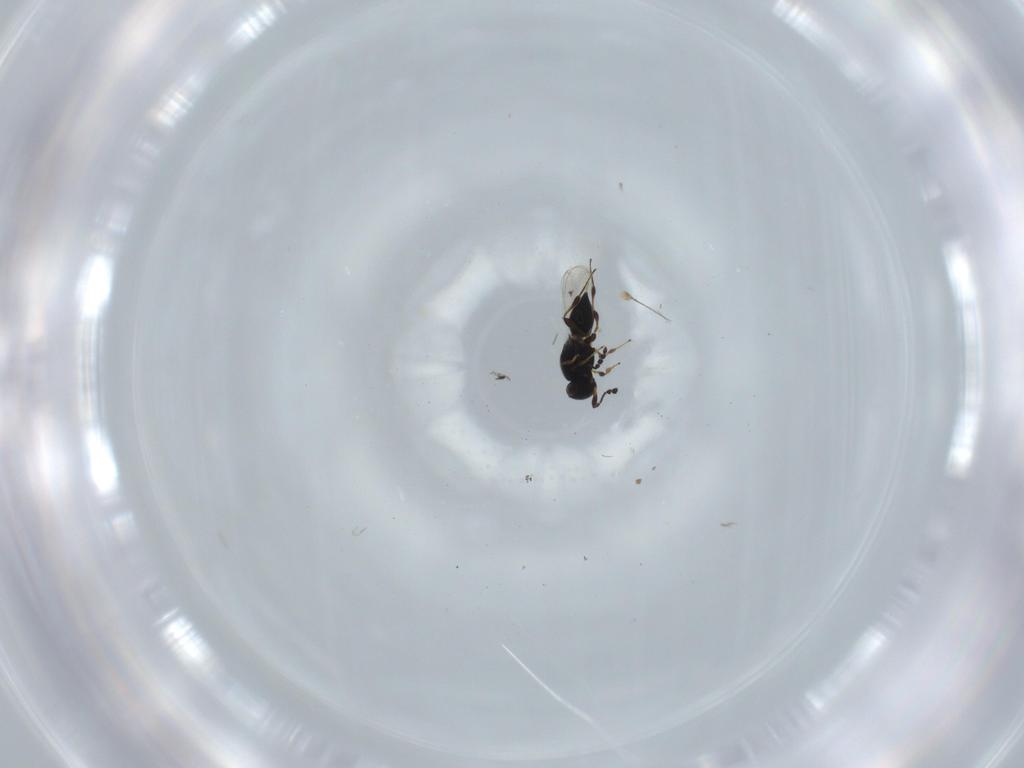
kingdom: Animalia
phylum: Arthropoda
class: Insecta
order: Hymenoptera
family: Platygastridae
